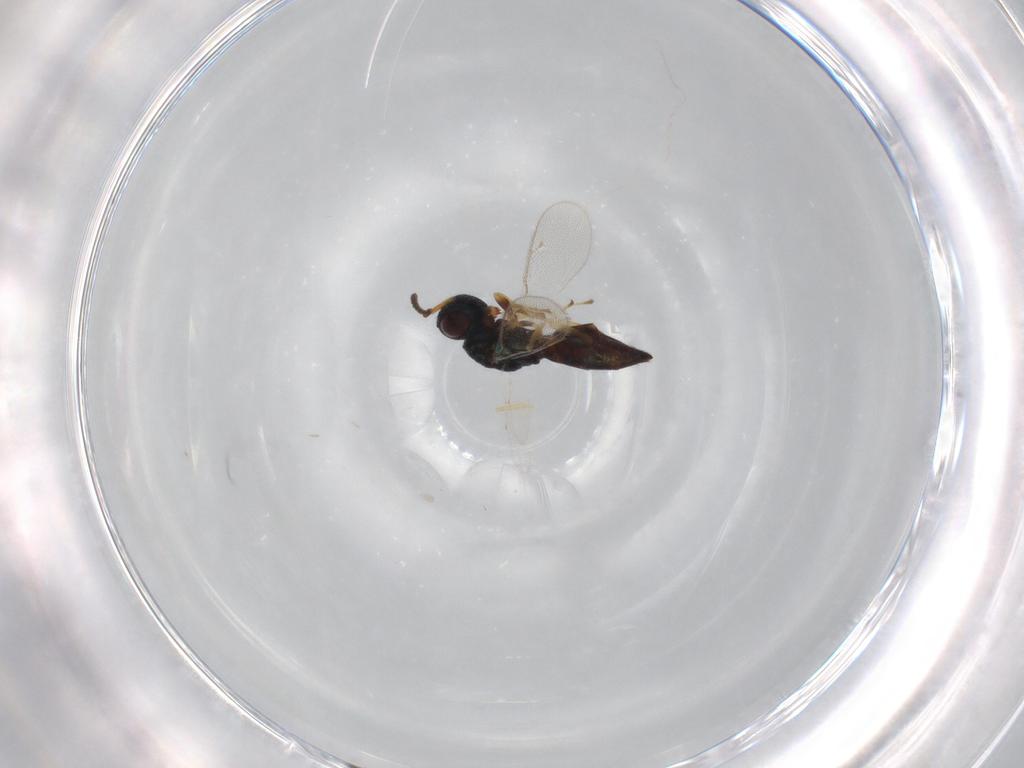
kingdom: Animalia
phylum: Arthropoda
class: Insecta
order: Hymenoptera
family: Pteromalidae
